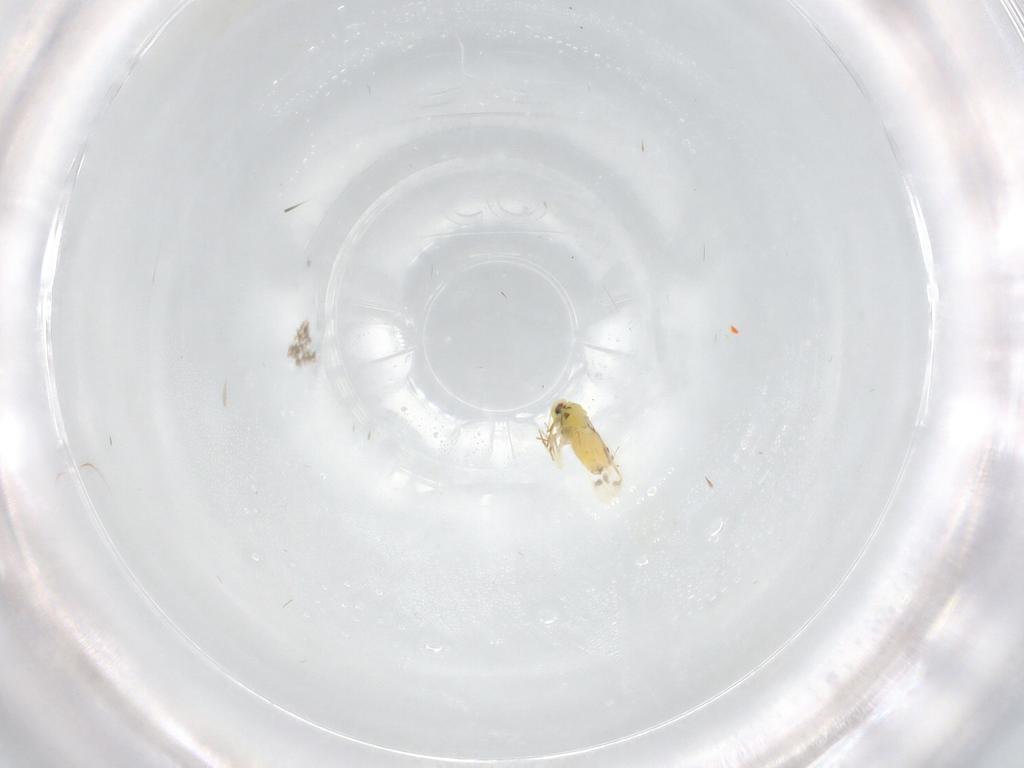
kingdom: Animalia
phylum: Arthropoda
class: Insecta
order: Hemiptera
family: Aleyrodidae
